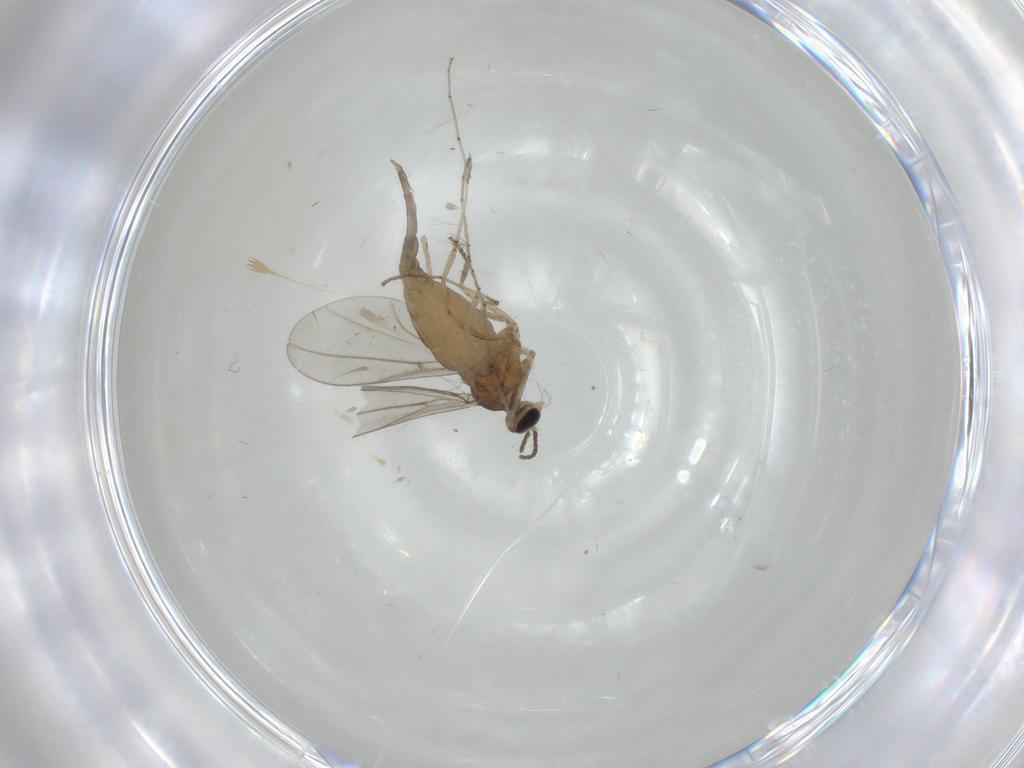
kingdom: Animalia
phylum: Arthropoda
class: Insecta
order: Diptera
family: Cecidomyiidae
